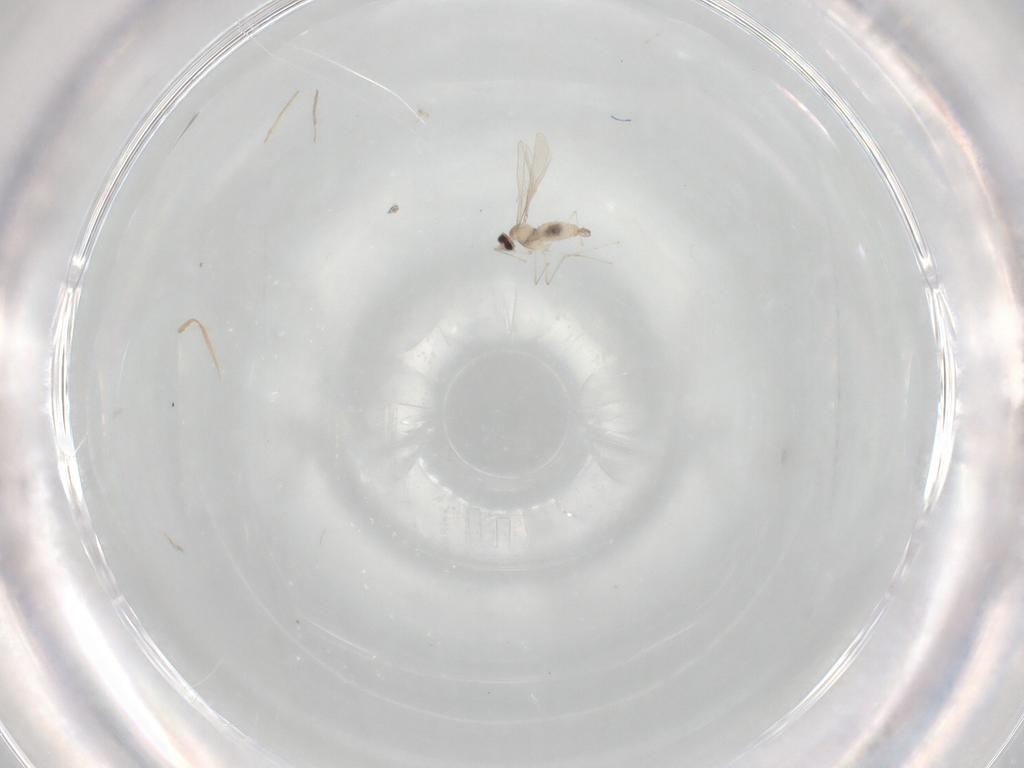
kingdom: Animalia
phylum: Arthropoda
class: Insecta
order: Diptera
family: Cecidomyiidae
